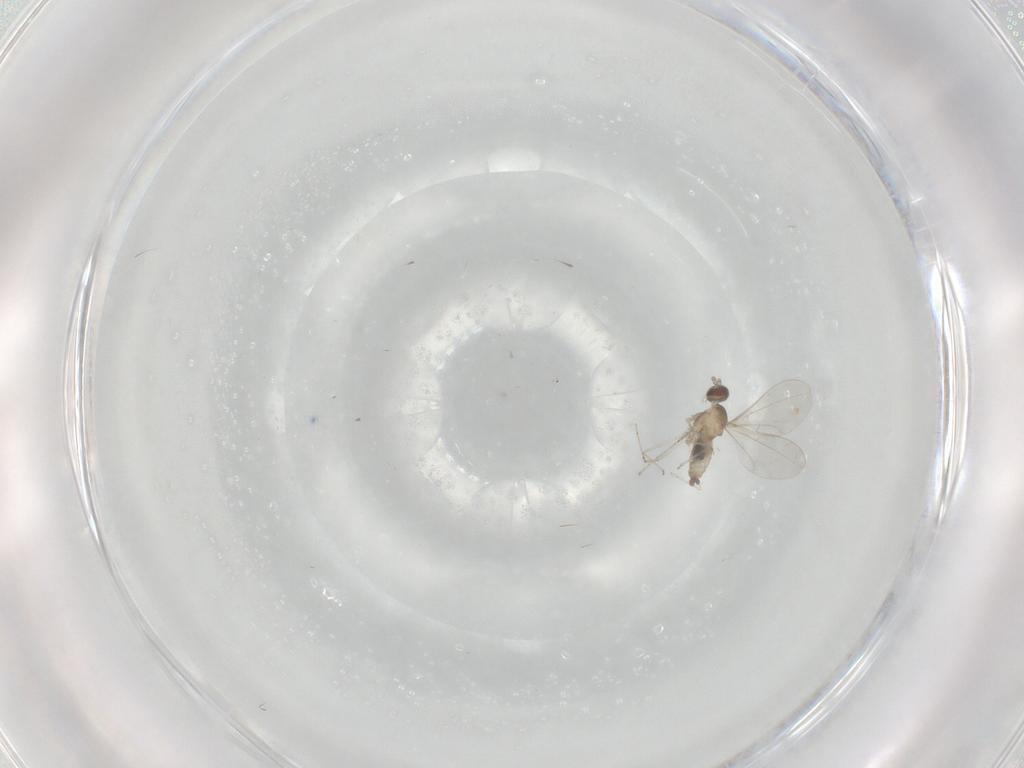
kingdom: Animalia
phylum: Arthropoda
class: Insecta
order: Diptera
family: Cecidomyiidae
